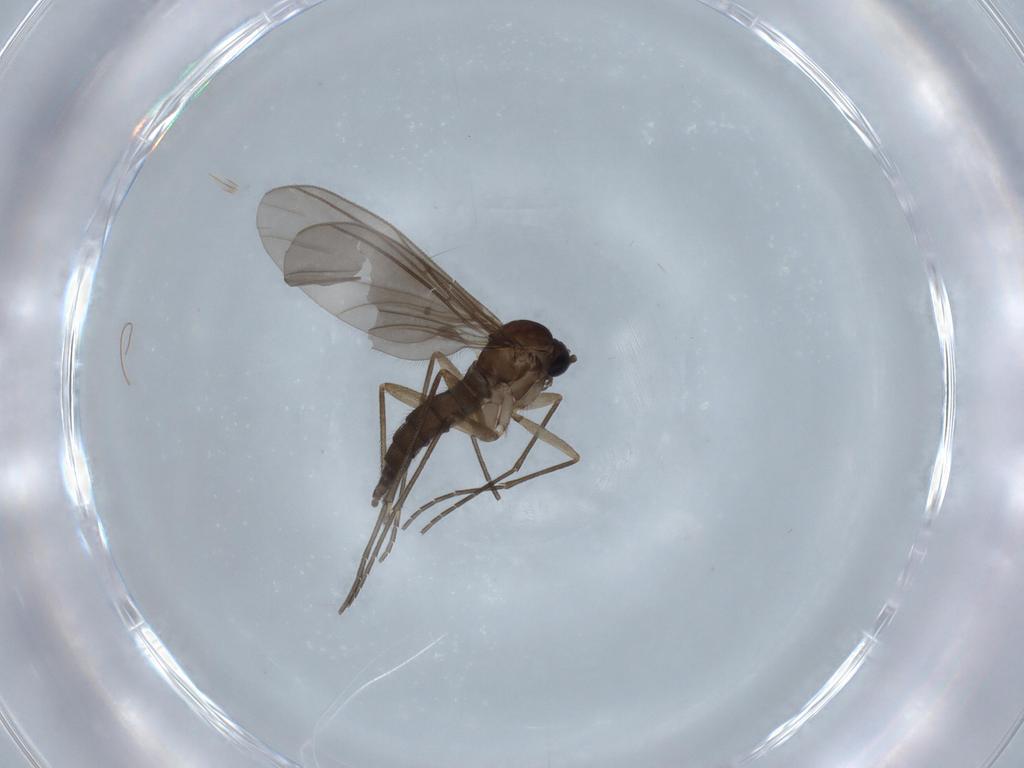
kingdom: Animalia
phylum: Arthropoda
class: Insecta
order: Diptera
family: Sciaridae
